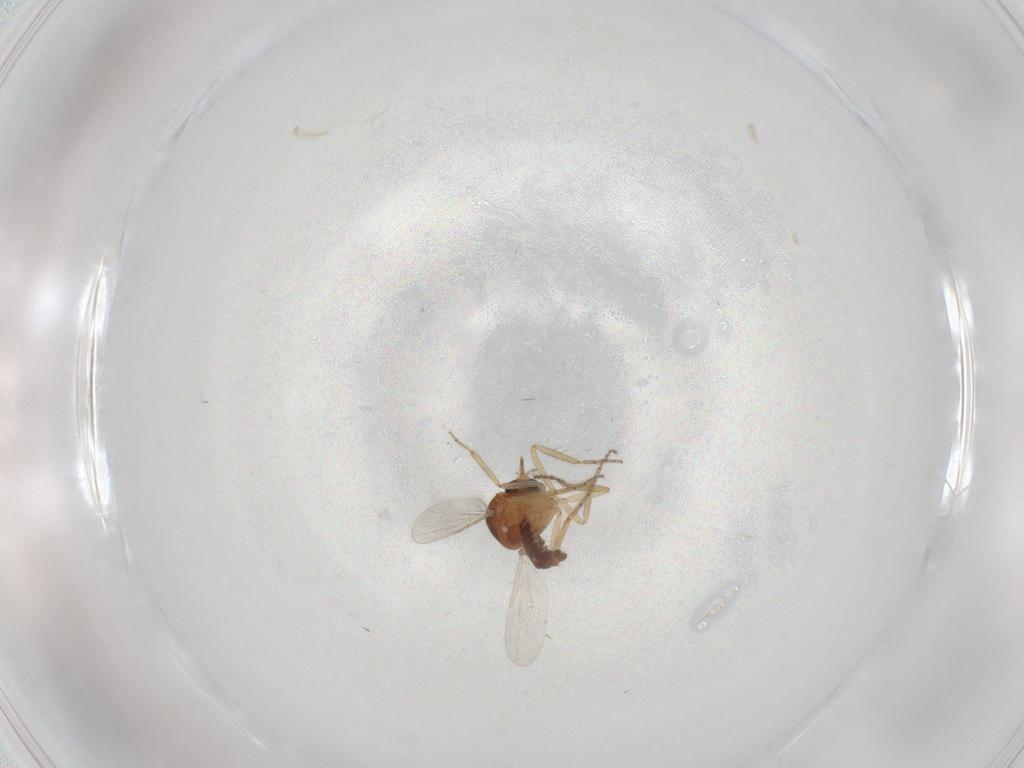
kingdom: Animalia
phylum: Arthropoda
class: Insecta
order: Diptera
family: Ceratopogonidae
